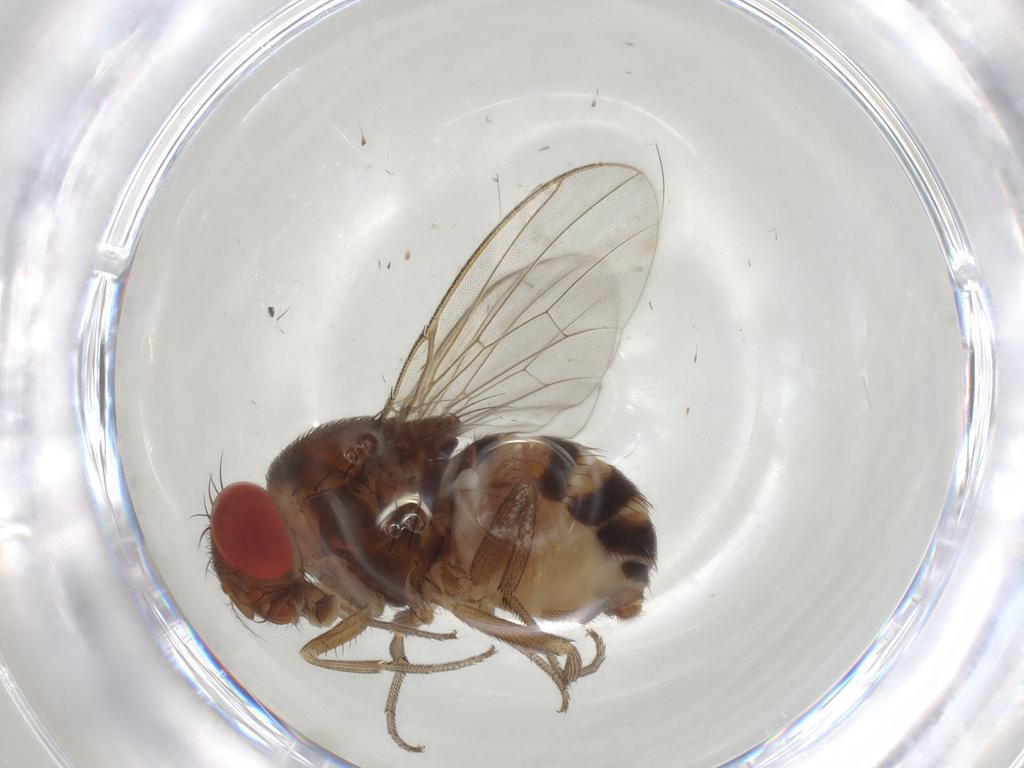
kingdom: Animalia
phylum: Arthropoda
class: Insecta
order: Diptera
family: Drosophilidae
